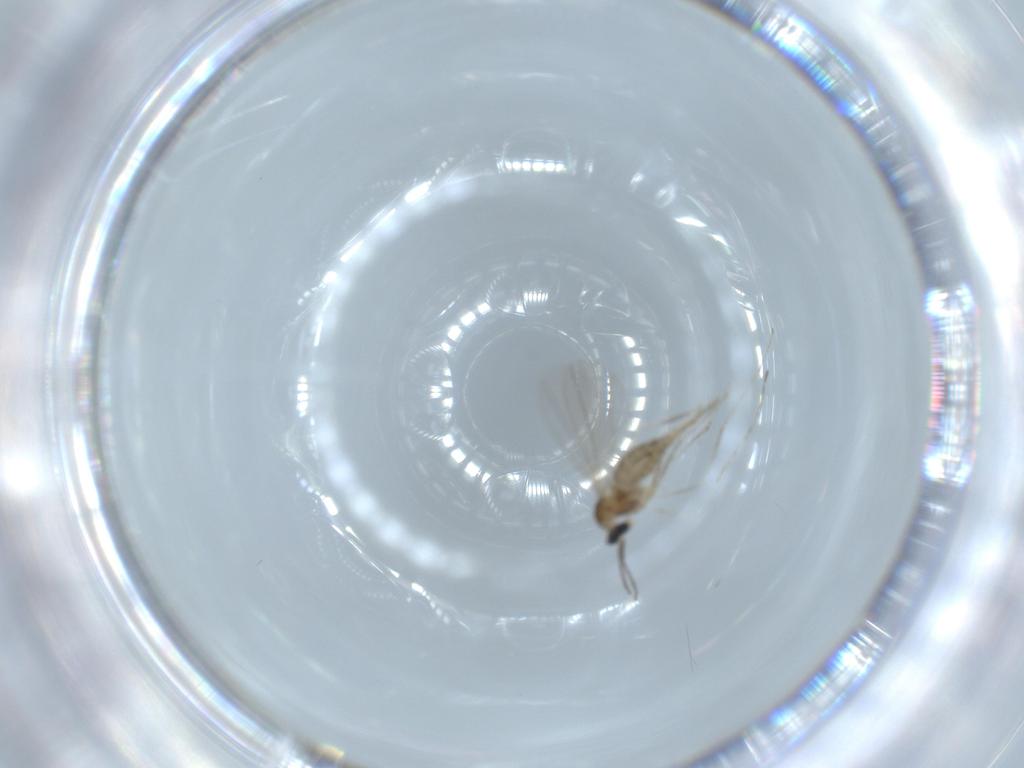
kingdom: Animalia
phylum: Arthropoda
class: Insecta
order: Diptera
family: Cecidomyiidae
